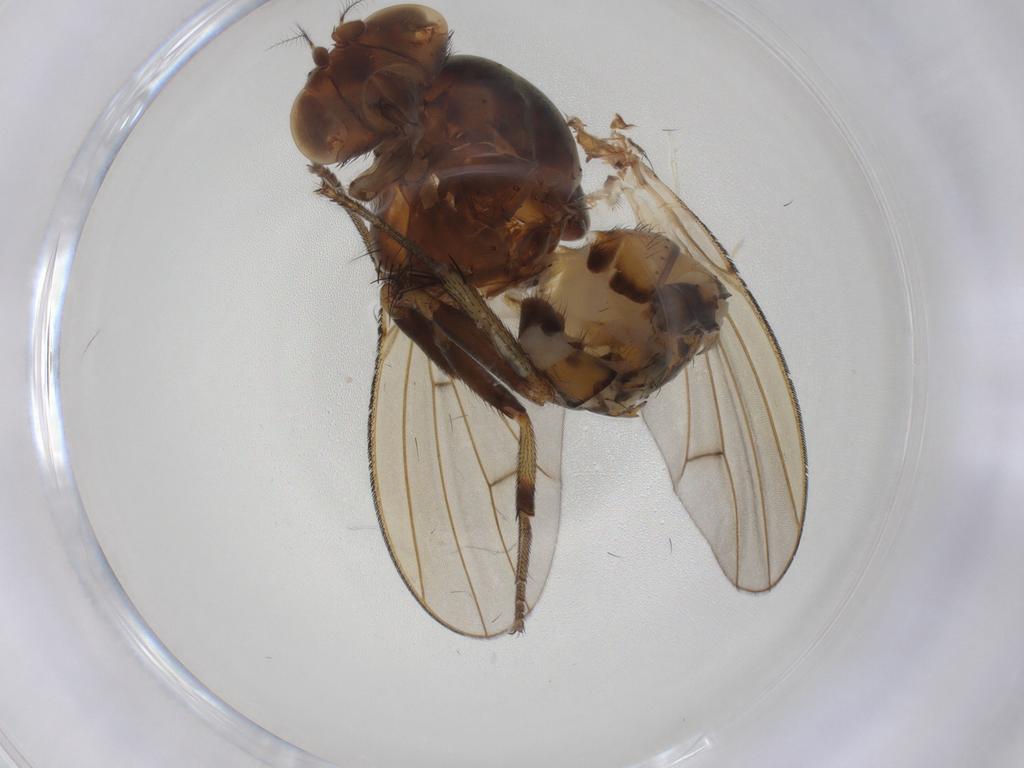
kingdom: Animalia
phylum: Arthropoda
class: Insecta
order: Diptera
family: Lauxaniidae
